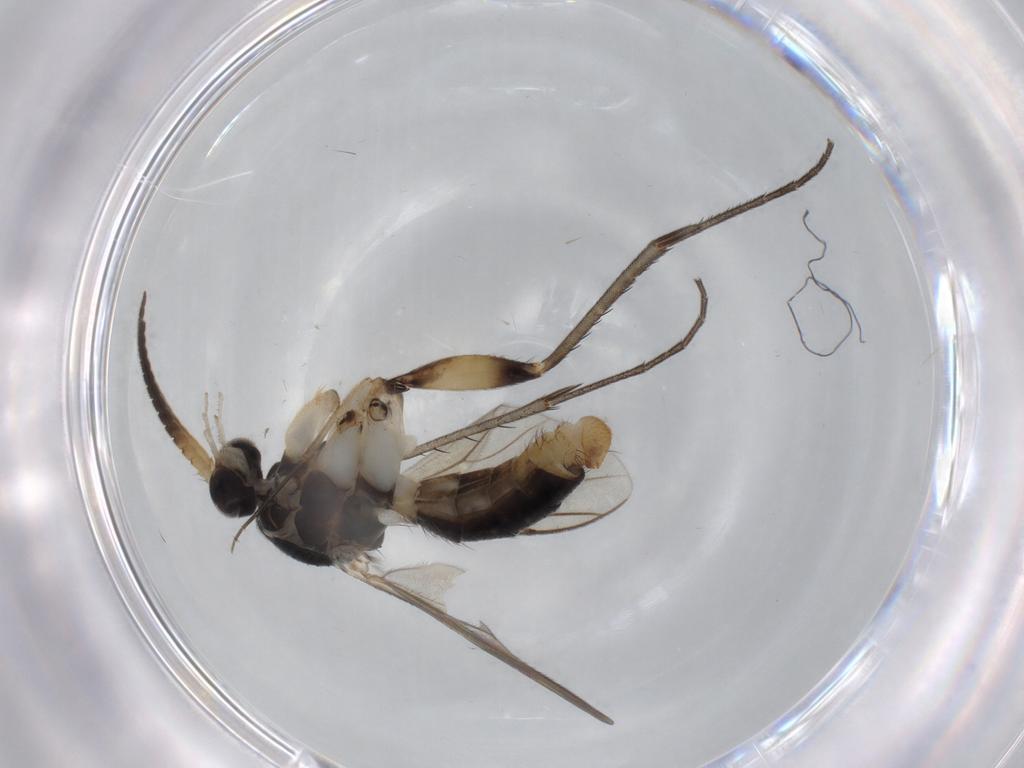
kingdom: Animalia
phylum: Arthropoda
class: Insecta
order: Diptera
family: Sciaridae
